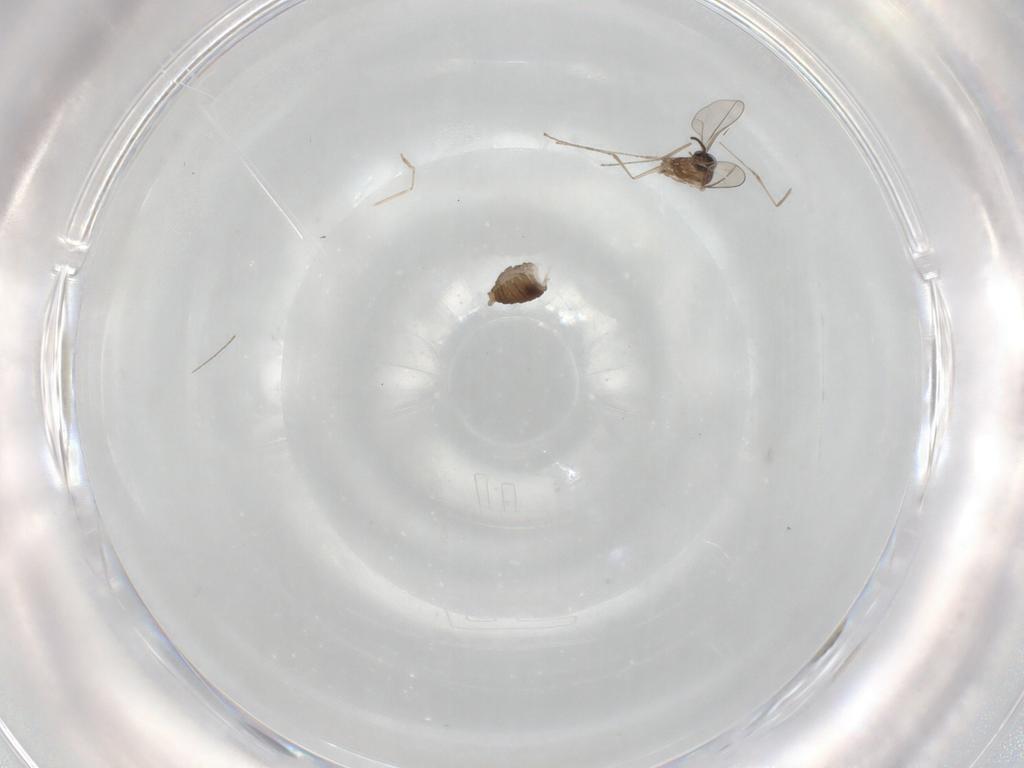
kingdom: Animalia
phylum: Arthropoda
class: Insecta
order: Diptera
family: Cecidomyiidae
